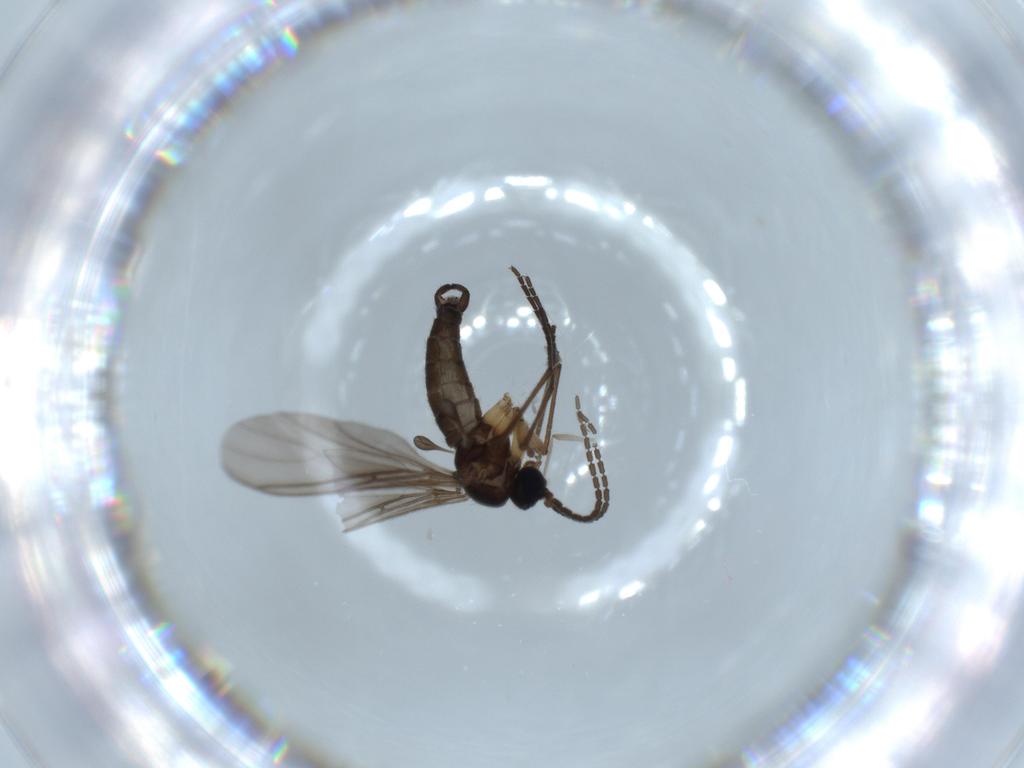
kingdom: Animalia
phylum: Arthropoda
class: Insecta
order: Diptera
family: Chironomidae
